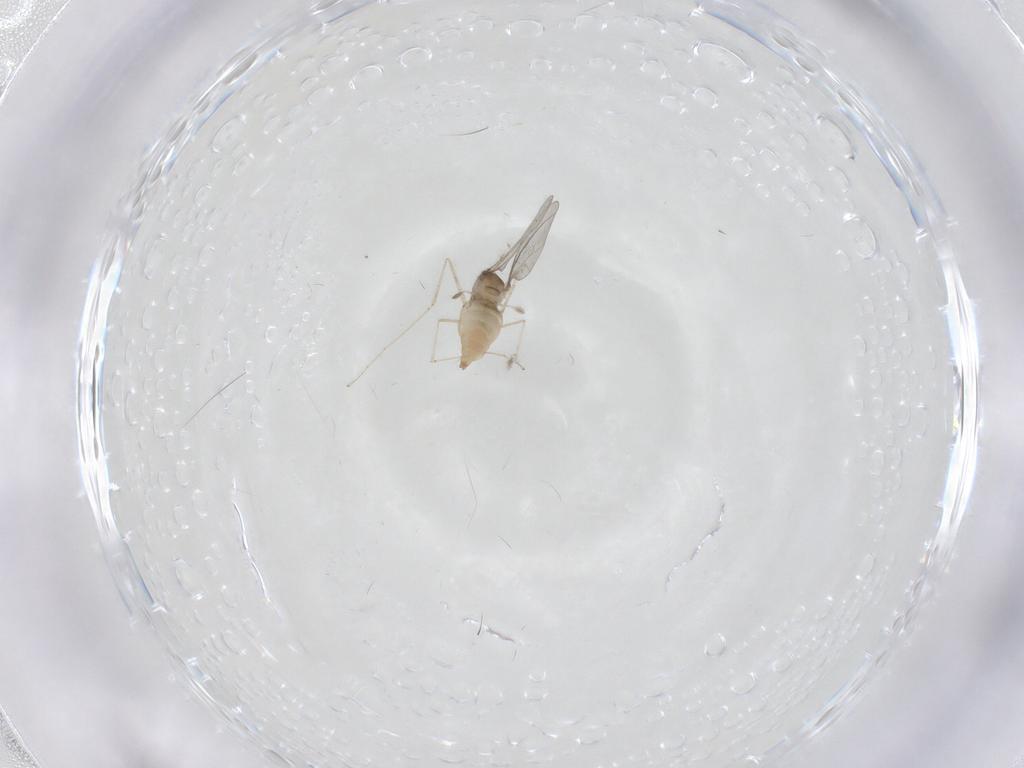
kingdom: Animalia
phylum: Arthropoda
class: Insecta
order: Diptera
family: Cecidomyiidae
